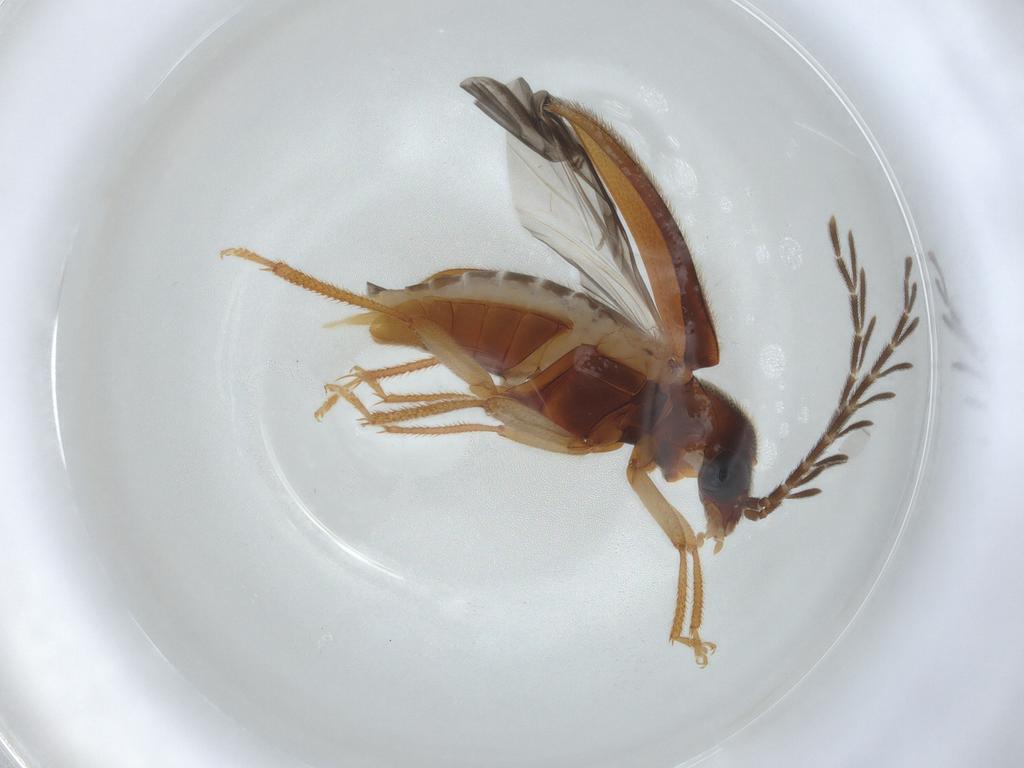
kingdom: Animalia
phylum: Arthropoda
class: Insecta
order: Coleoptera
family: Ptilodactylidae
